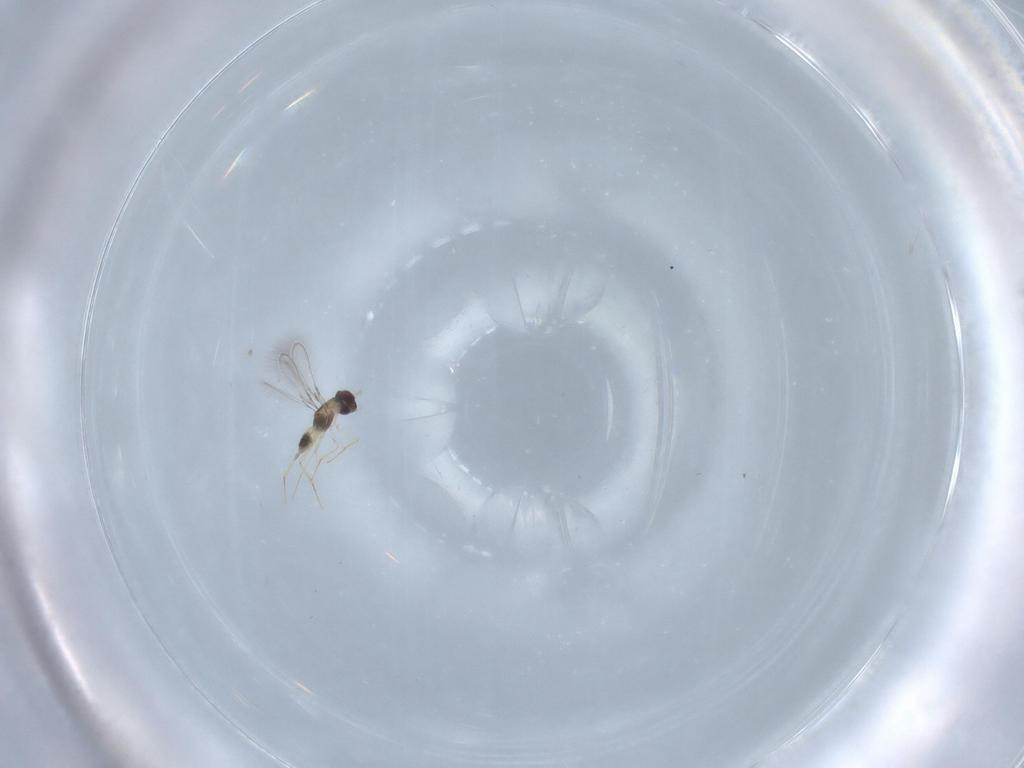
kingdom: Animalia
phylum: Arthropoda
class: Insecta
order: Hymenoptera
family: Mymaridae
